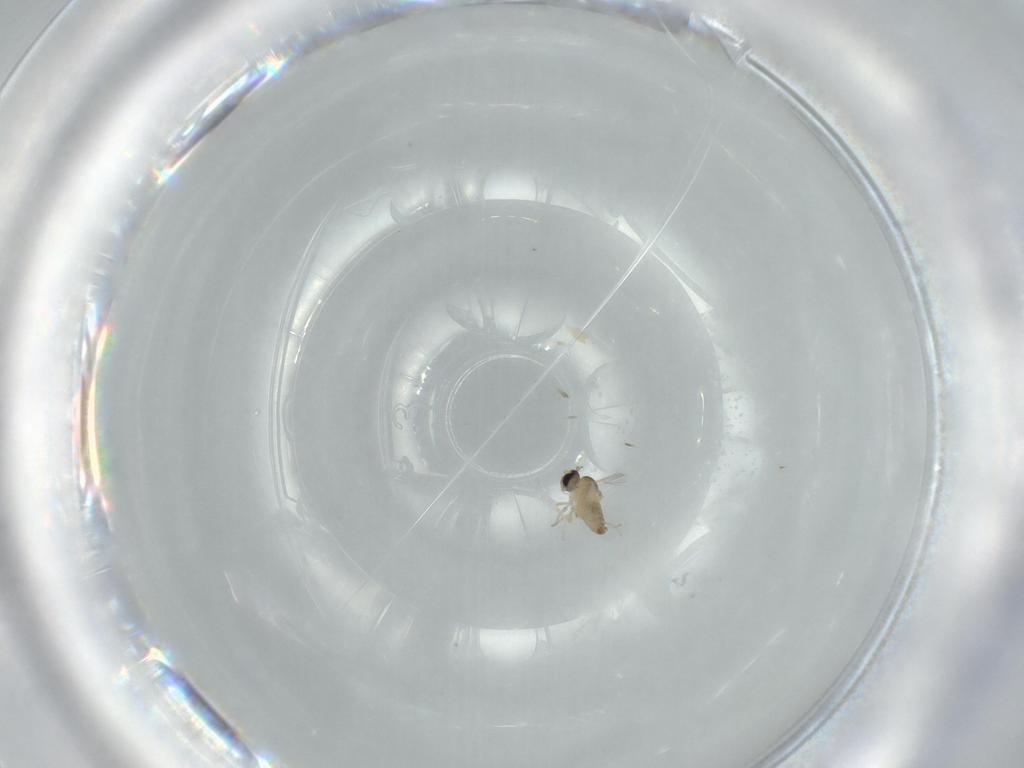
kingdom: Animalia
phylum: Arthropoda
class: Insecta
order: Diptera
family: Cecidomyiidae
